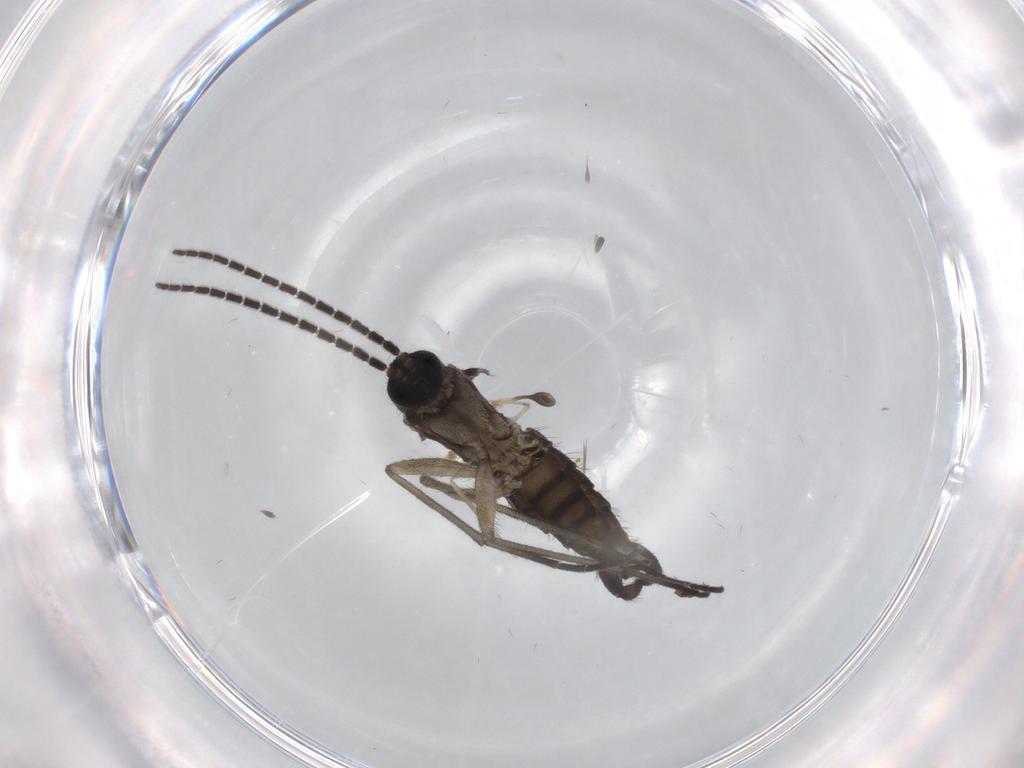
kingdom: Animalia
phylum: Arthropoda
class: Insecta
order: Diptera
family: Sciaridae
